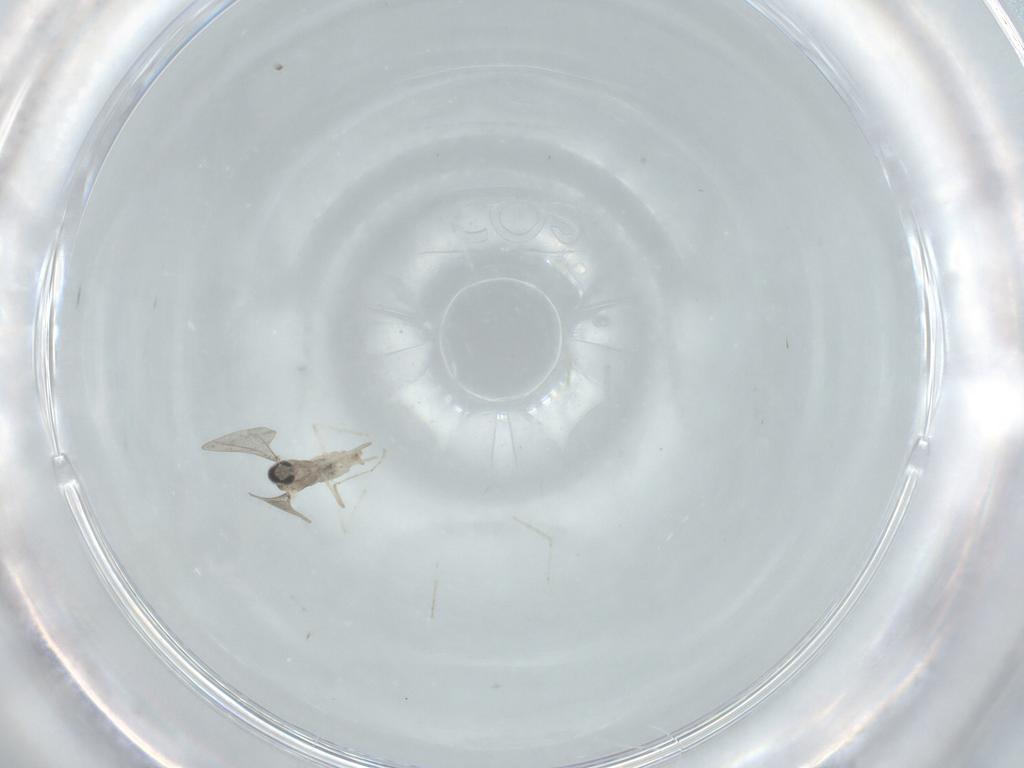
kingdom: Animalia
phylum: Arthropoda
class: Insecta
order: Diptera
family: Cecidomyiidae
